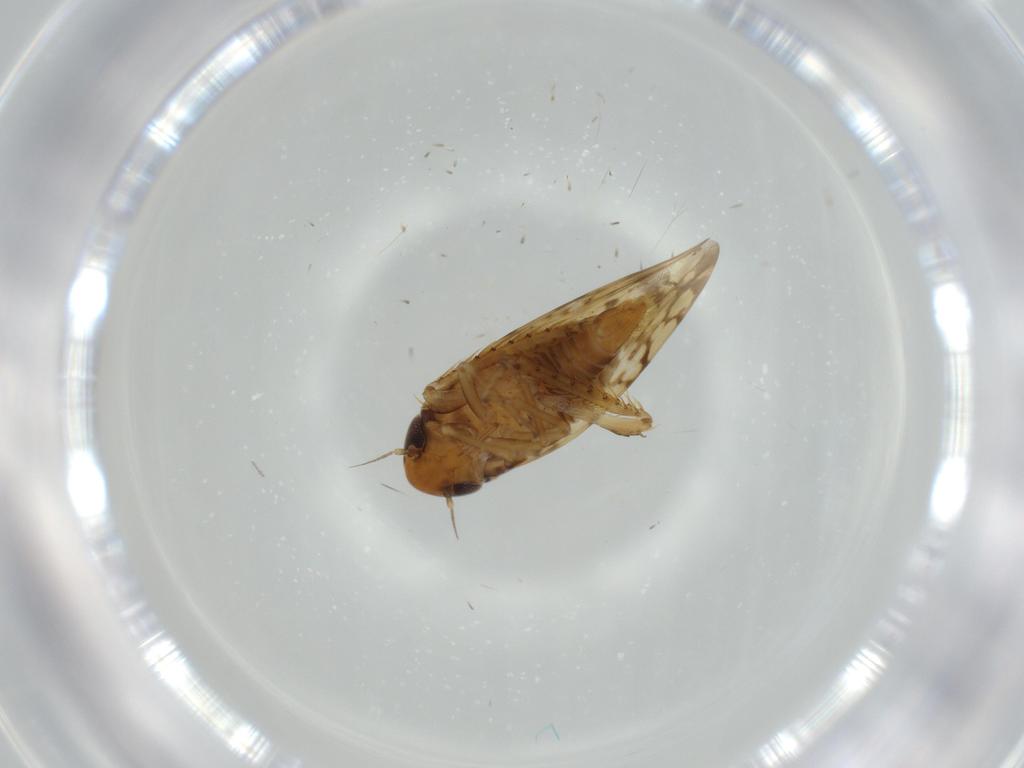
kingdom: Animalia
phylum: Arthropoda
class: Insecta
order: Hemiptera
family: Cicadellidae
